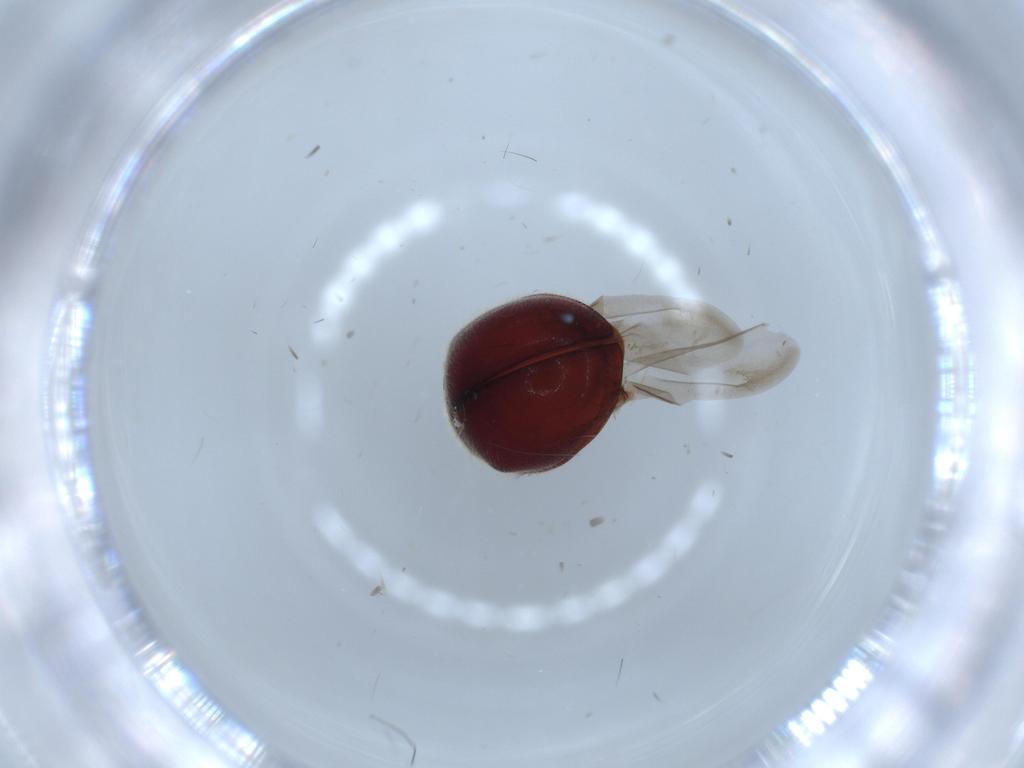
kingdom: Animalia
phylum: Arthropoda
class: Insecta
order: Coleoptera
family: Coccinellidae
